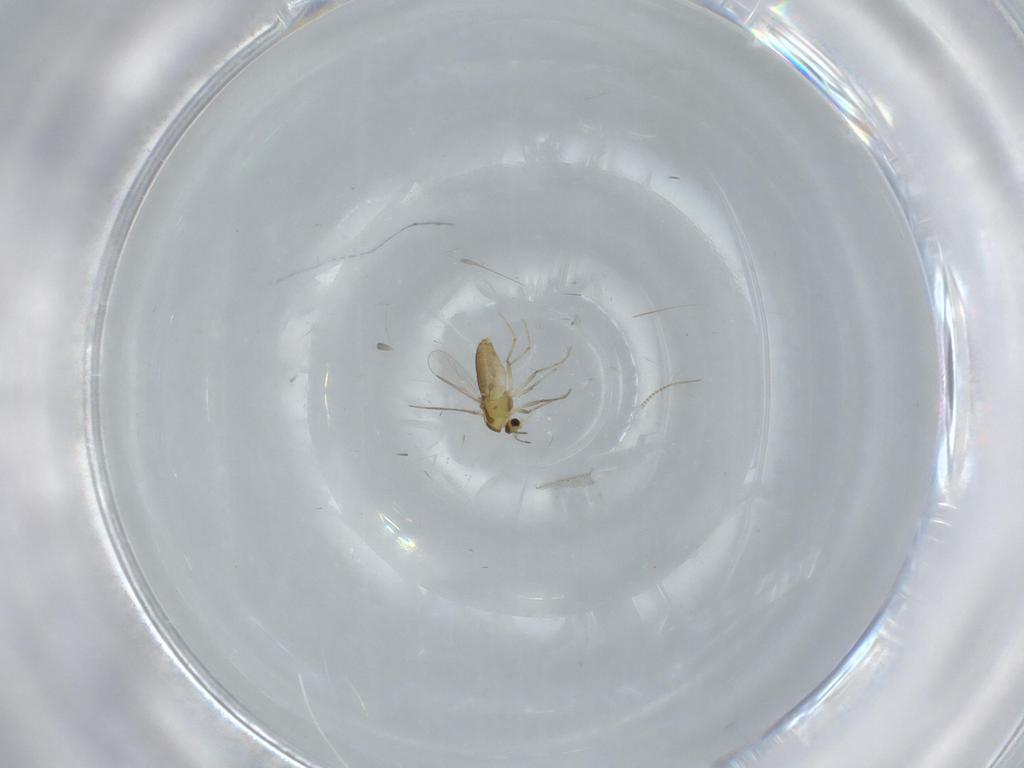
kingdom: Animalia
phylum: Arthropoda
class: Insecta
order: Diptera
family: Chironomidae
